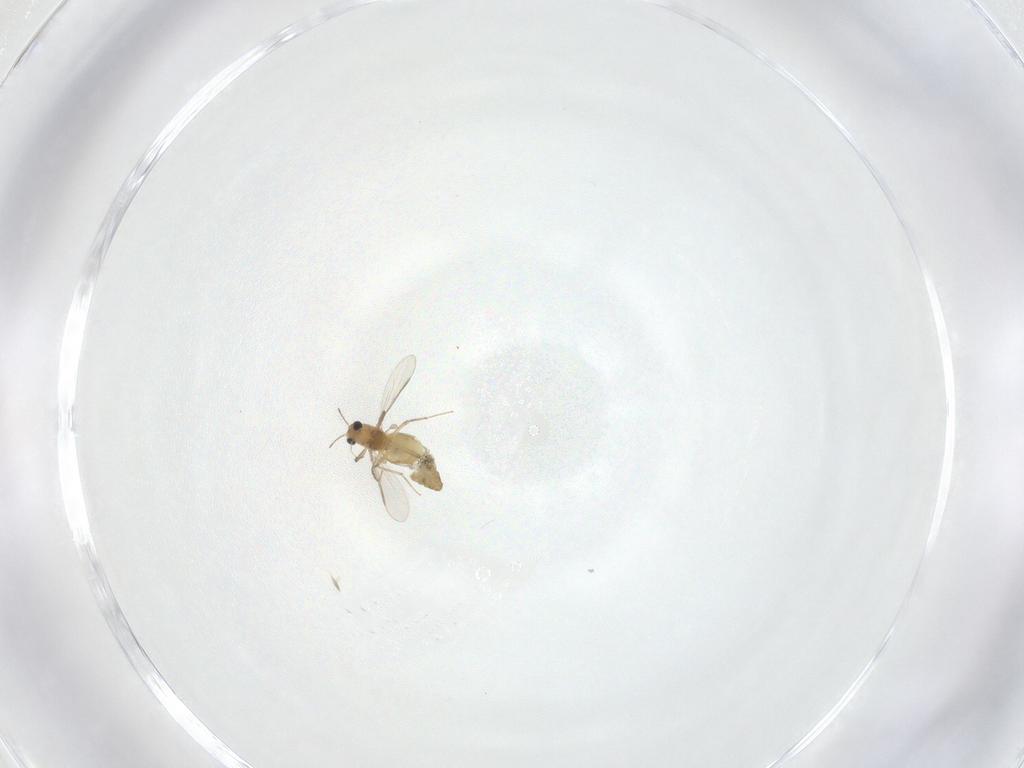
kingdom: Animalia
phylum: Arthropoda
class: Insecta
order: Diptera
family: Chironomidae
